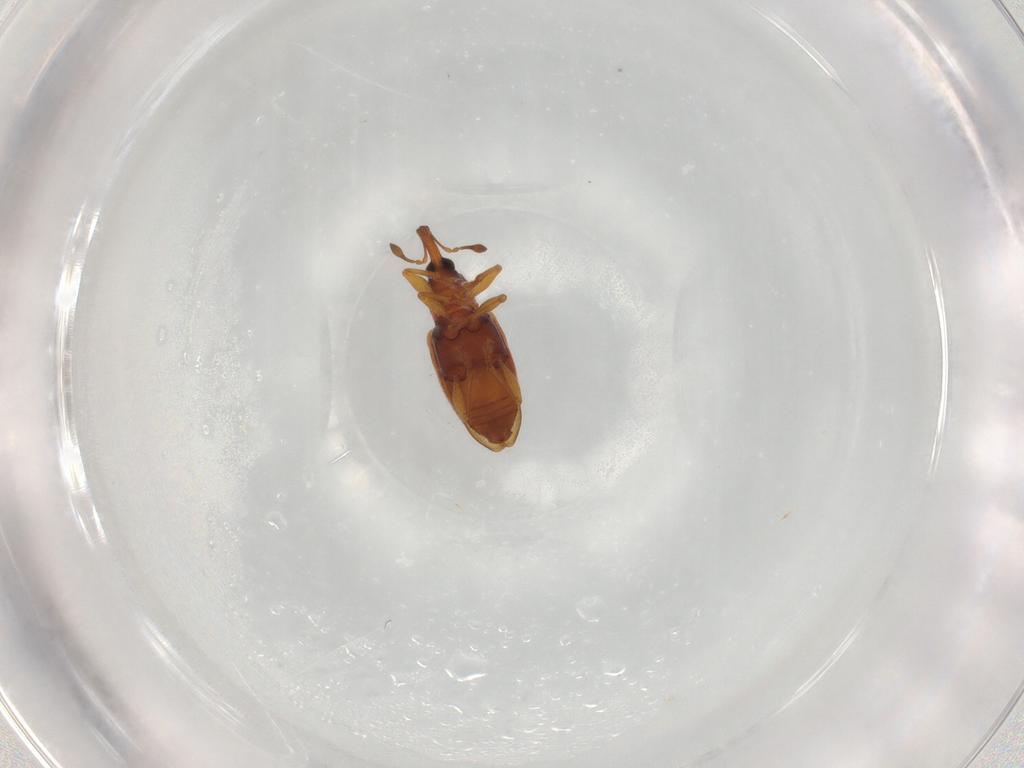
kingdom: Animalia
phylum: Arthropoda
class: Insecta
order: Coleoptera
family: Curculionidae
